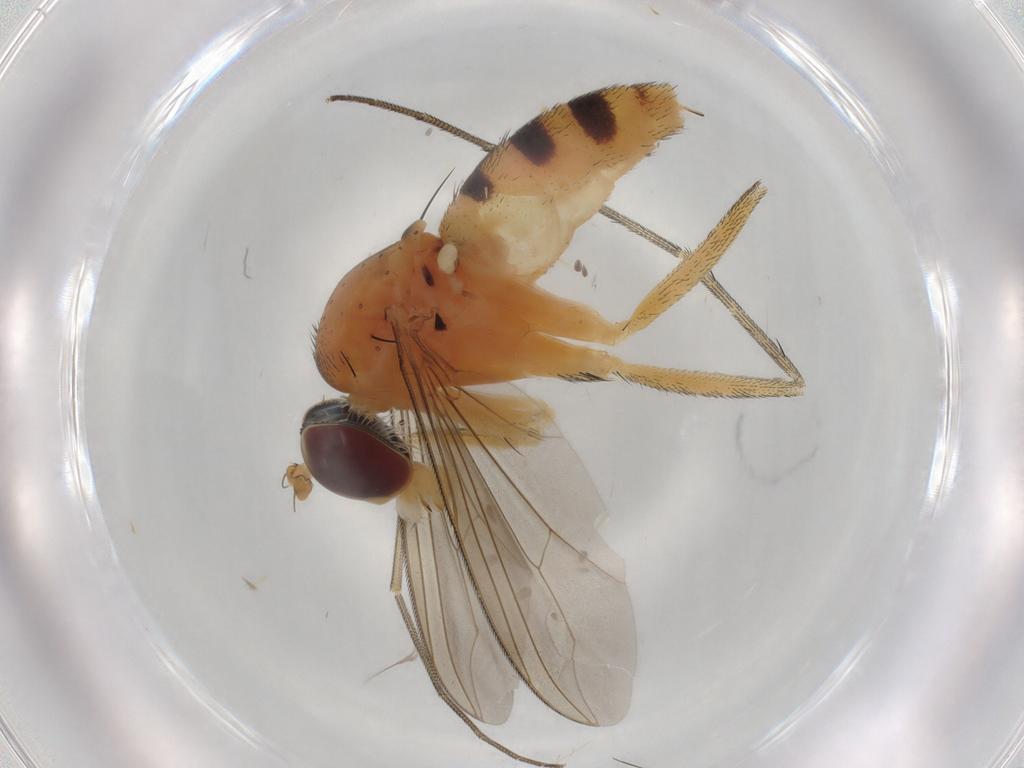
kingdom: Animalia
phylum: Arthropoda
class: Insecta
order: Diptera
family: Dolichopodidae
